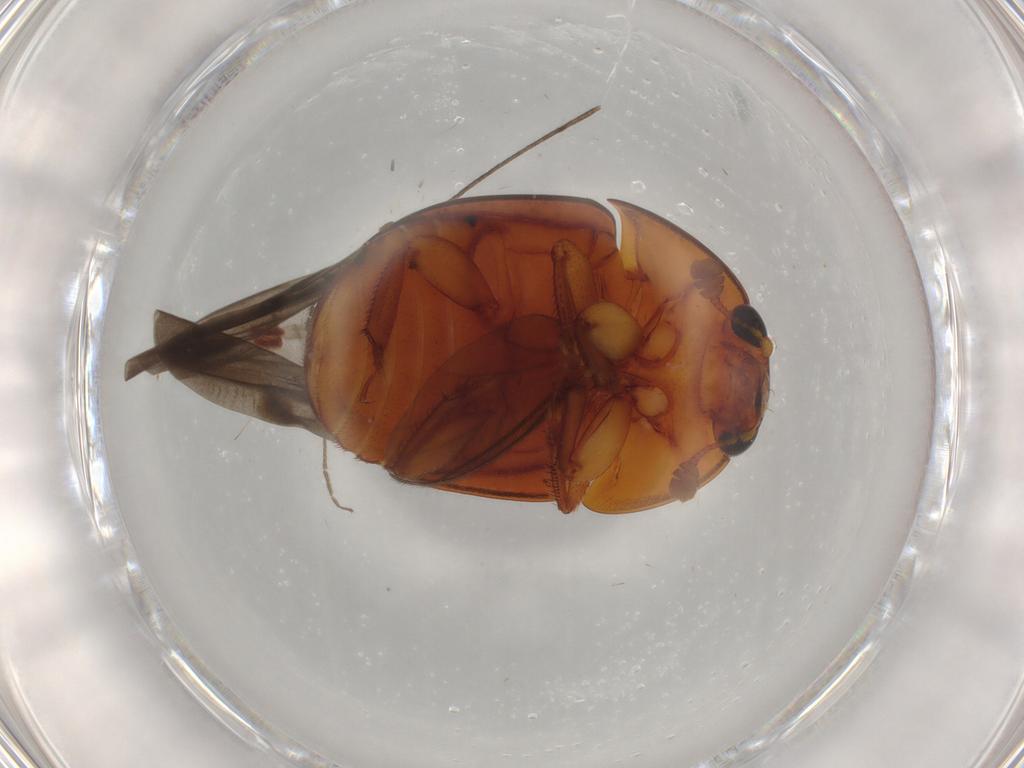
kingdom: Animalia
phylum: Arthropoda
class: Insecta
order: Coleoptera
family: Nitidulidae
